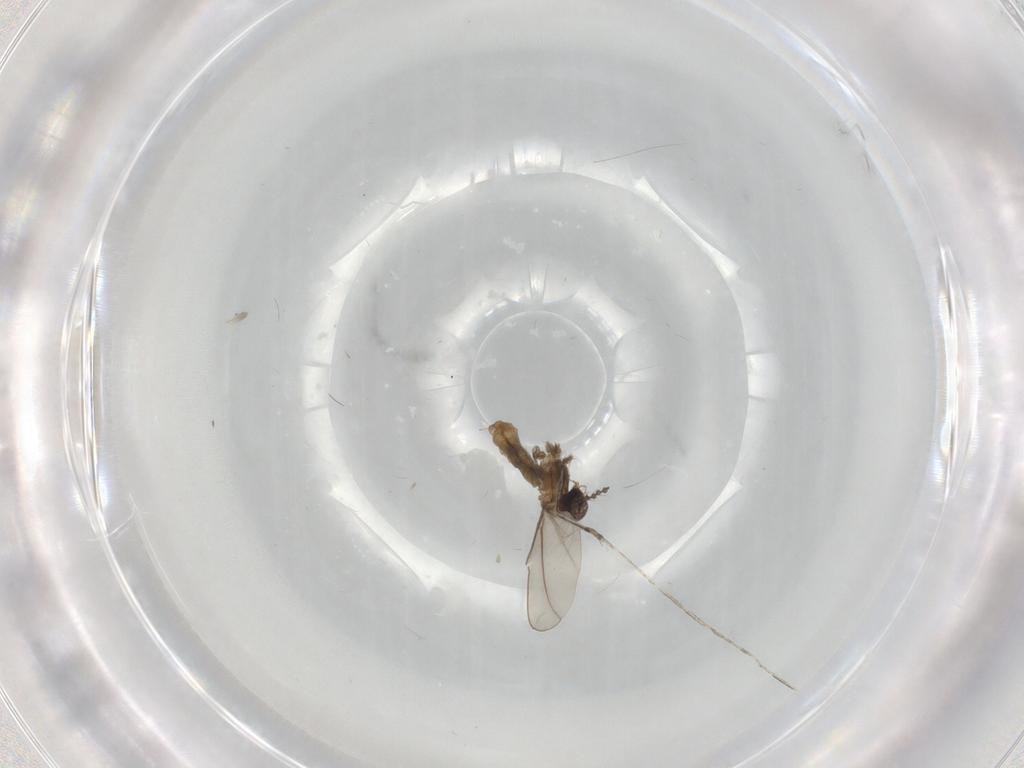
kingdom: Animalia
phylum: Arthropoda
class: Insecta
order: Diptera
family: Cecidomyiidae
